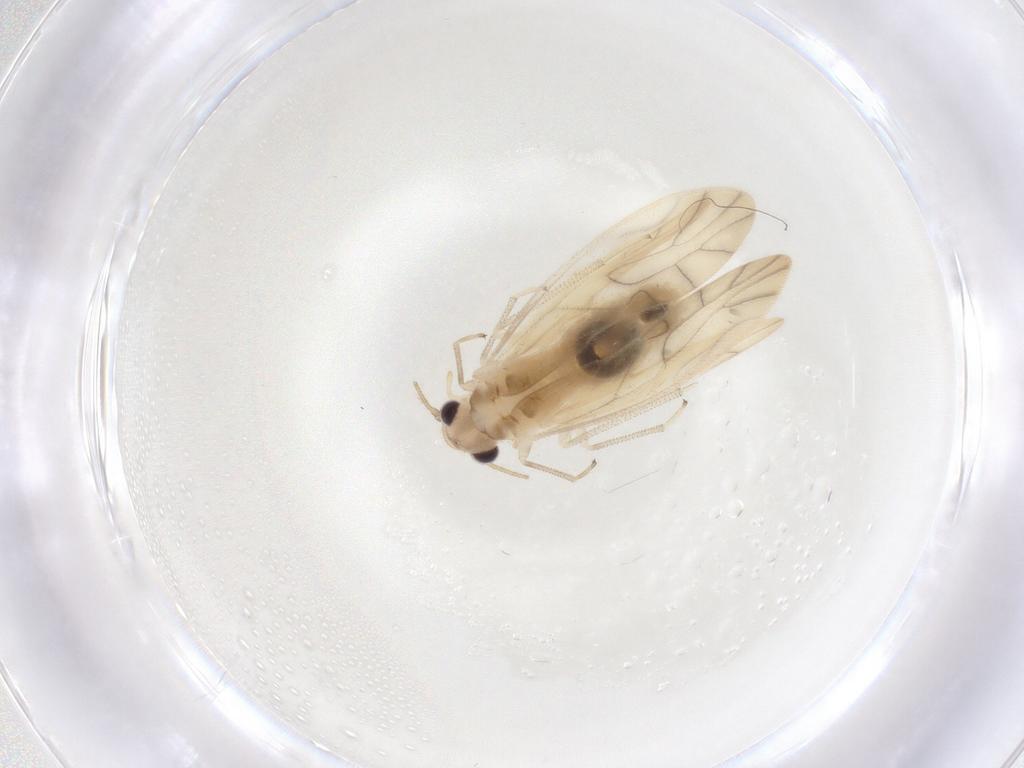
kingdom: Animalia
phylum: Arthropoda
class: Insecta
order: Psocodea
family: Caeciliusidae
